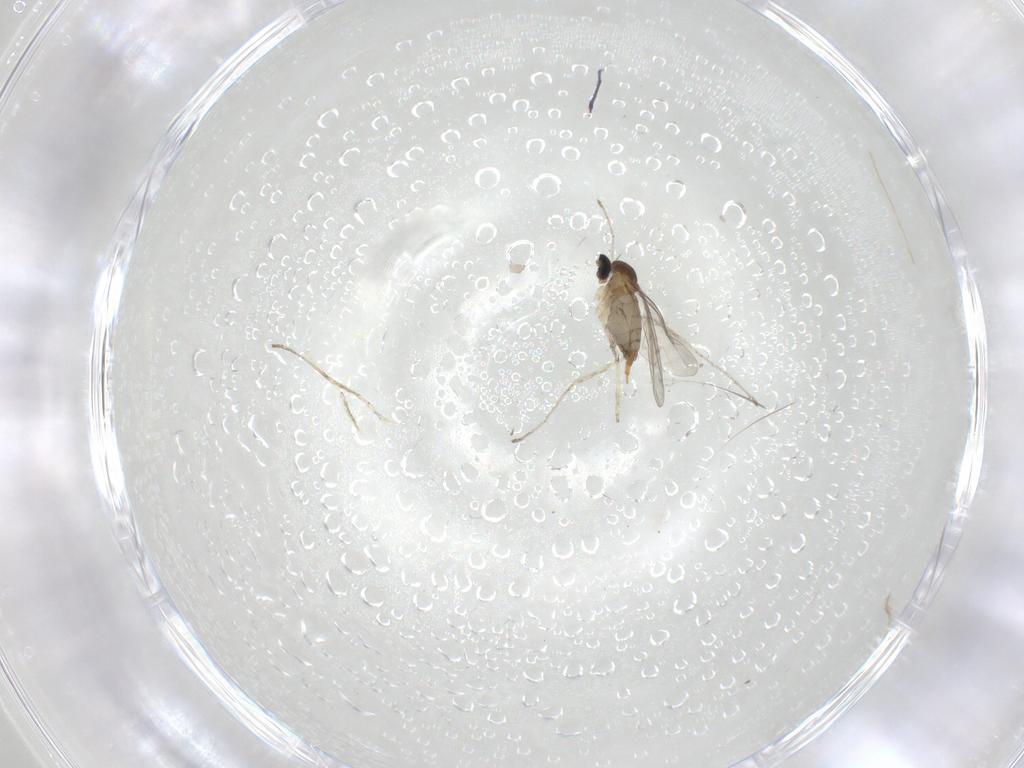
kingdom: Animalia
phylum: Arthropoda
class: Insecta
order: Diptera
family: Cecidomyiidae
